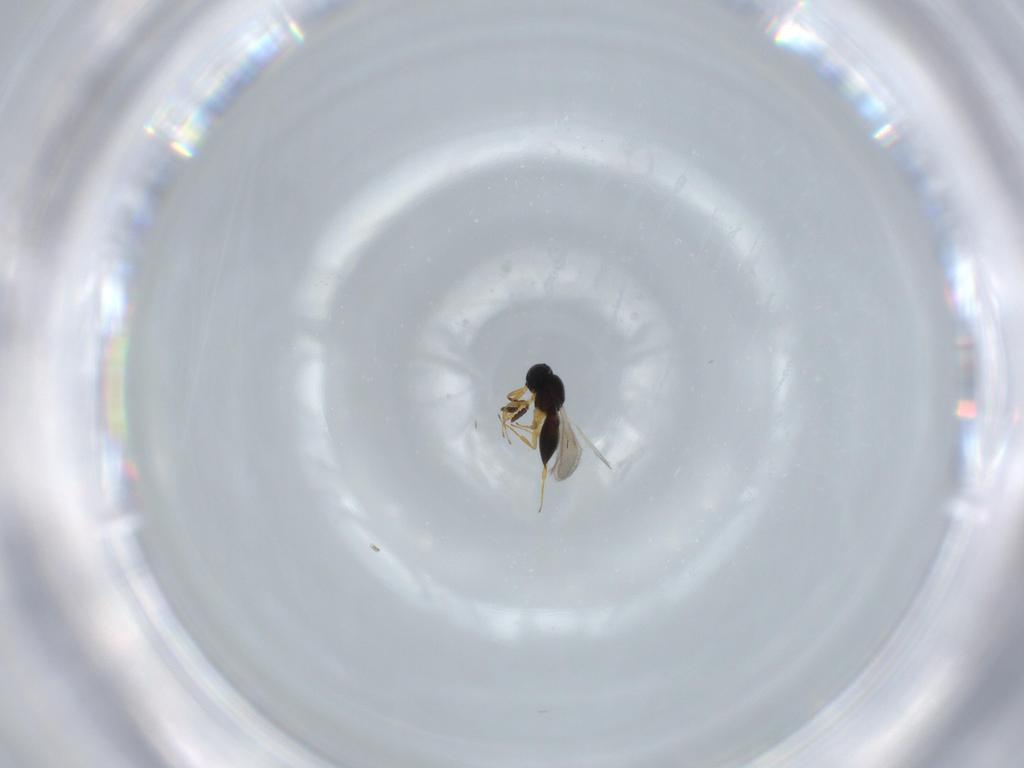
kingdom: Animalia
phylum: Arthropoda
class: Insecta
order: Hymenoptera
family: Scelionidae
